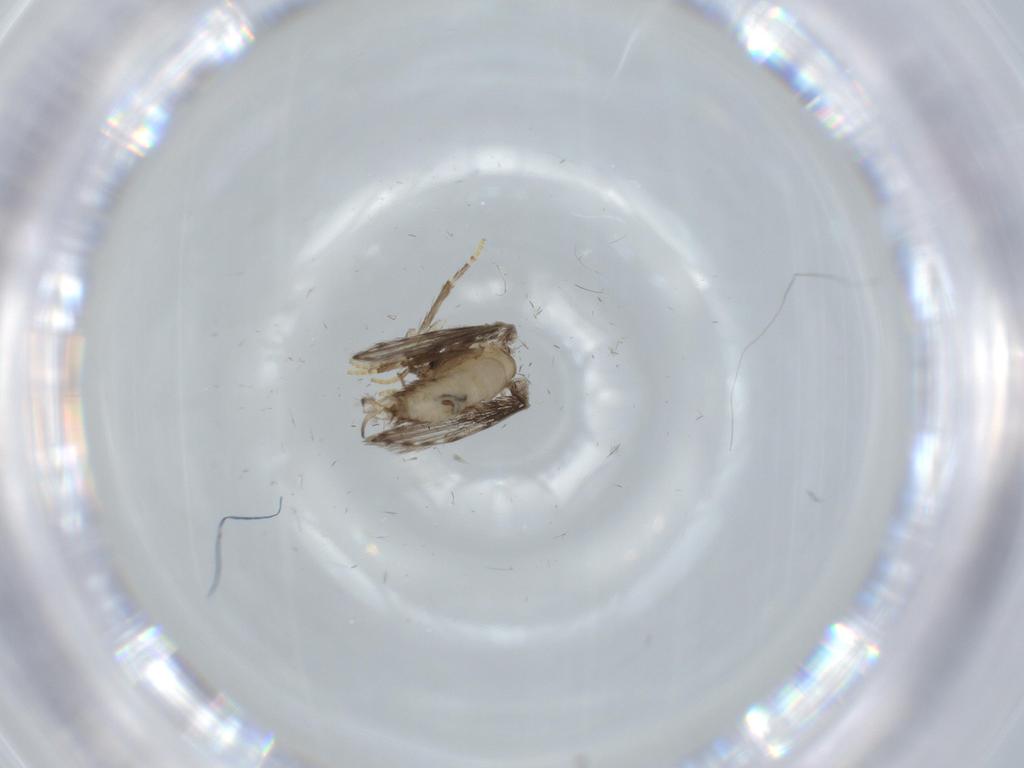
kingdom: Animalia
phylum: Arthropoda
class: Insecta
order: Diptera
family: Cecidomyiidae
